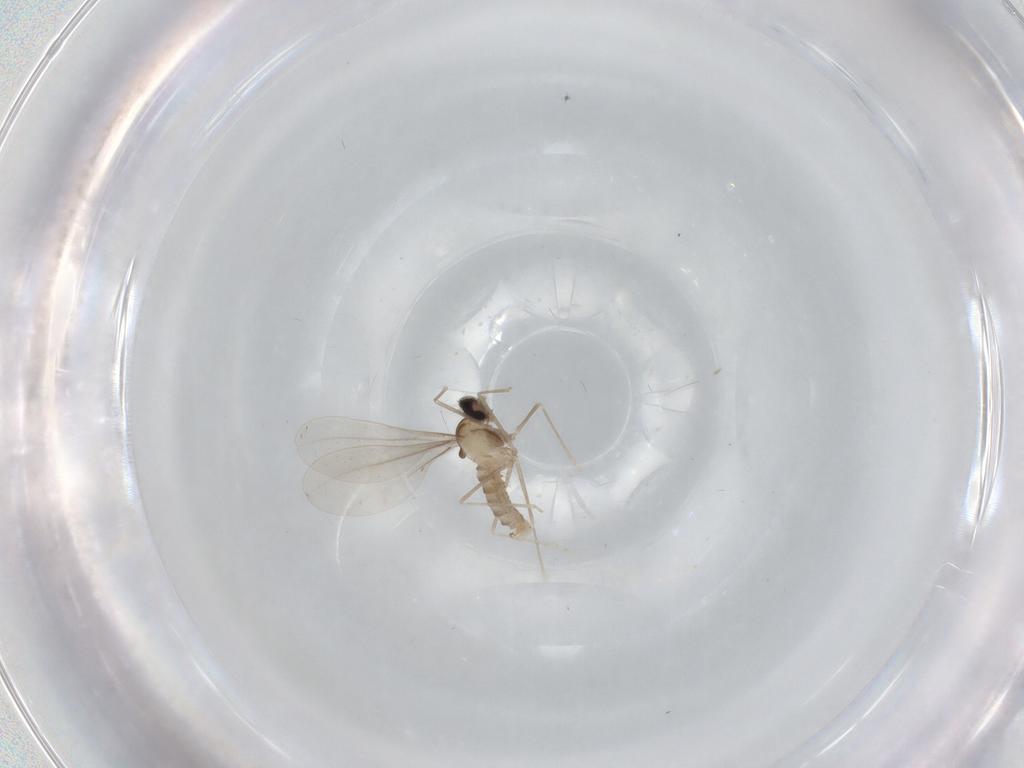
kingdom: Animalia
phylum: Arthropoda
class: Insecta
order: Diptera
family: Cecidomyiidae
